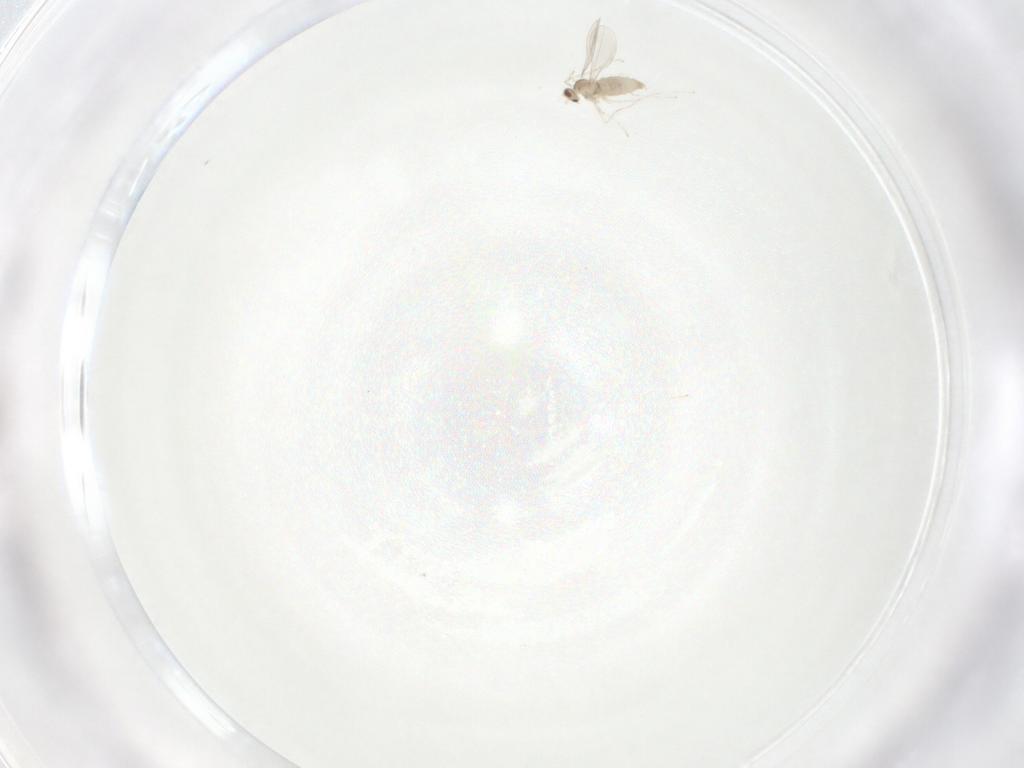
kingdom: Animalia
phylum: Arthropoda
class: Insecta
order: Diptera
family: Cecidomyiidae
